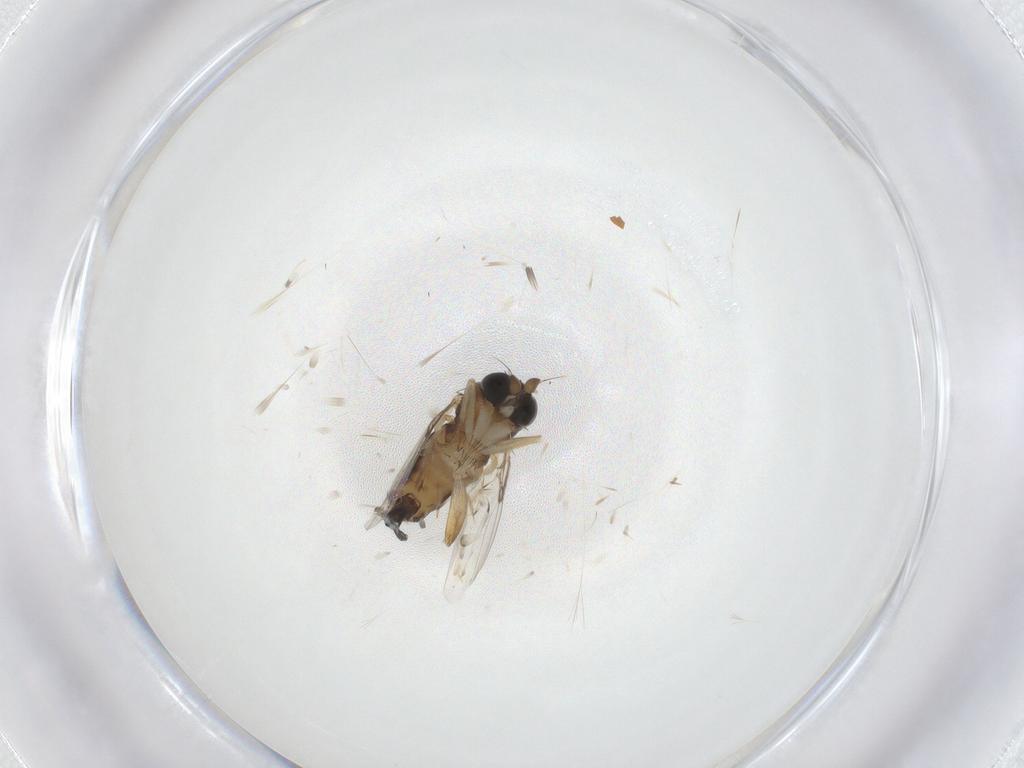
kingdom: Animalia
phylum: Arthropoda
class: Insecta
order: Diptera
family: Phoridae
